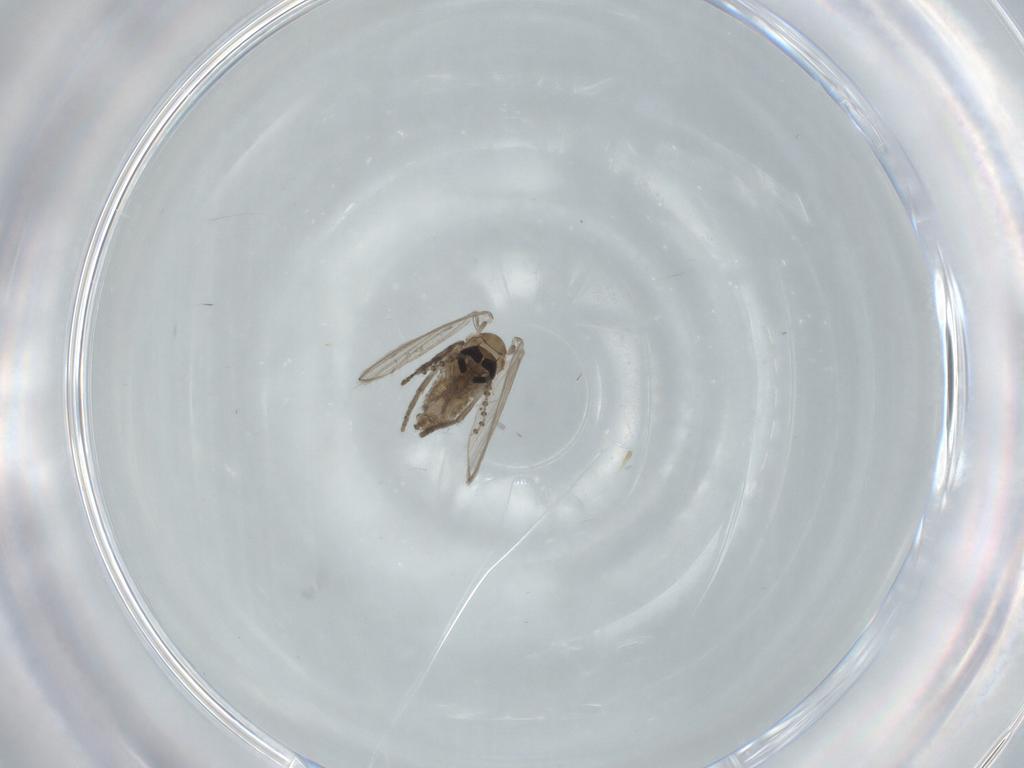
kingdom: Animalia
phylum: Arthropoda
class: Insecta
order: Diptera
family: Psychodidae
